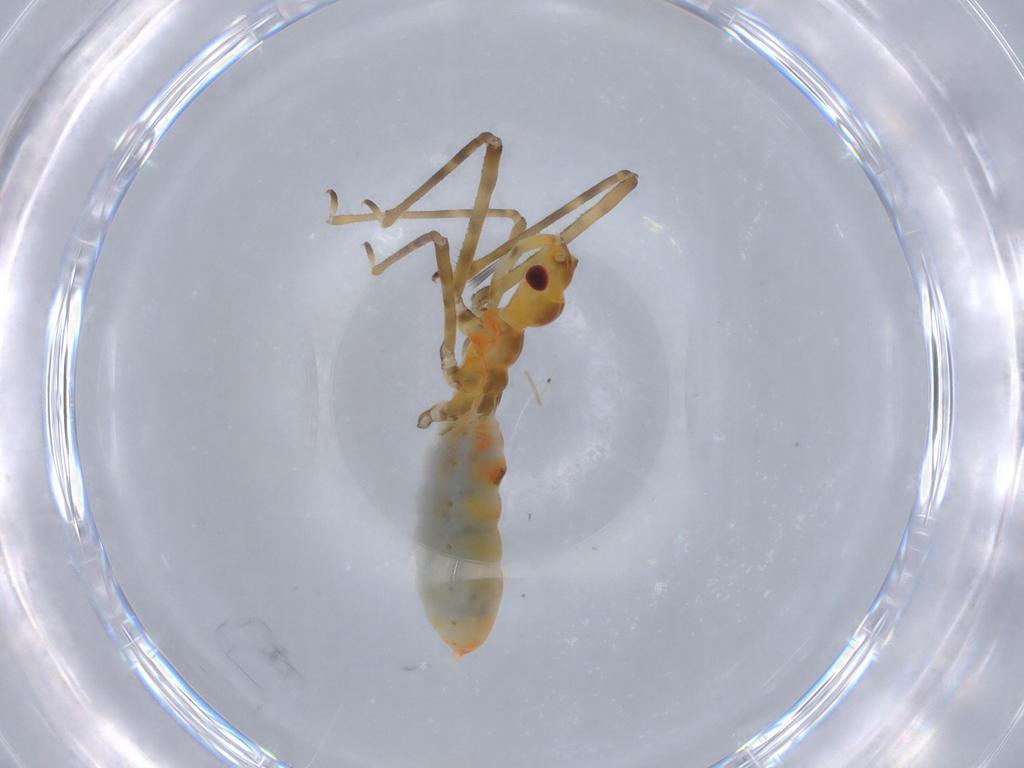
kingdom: Animalia
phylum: Arthropoda
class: Insecta
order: Hemiptera
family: Reduviidae
